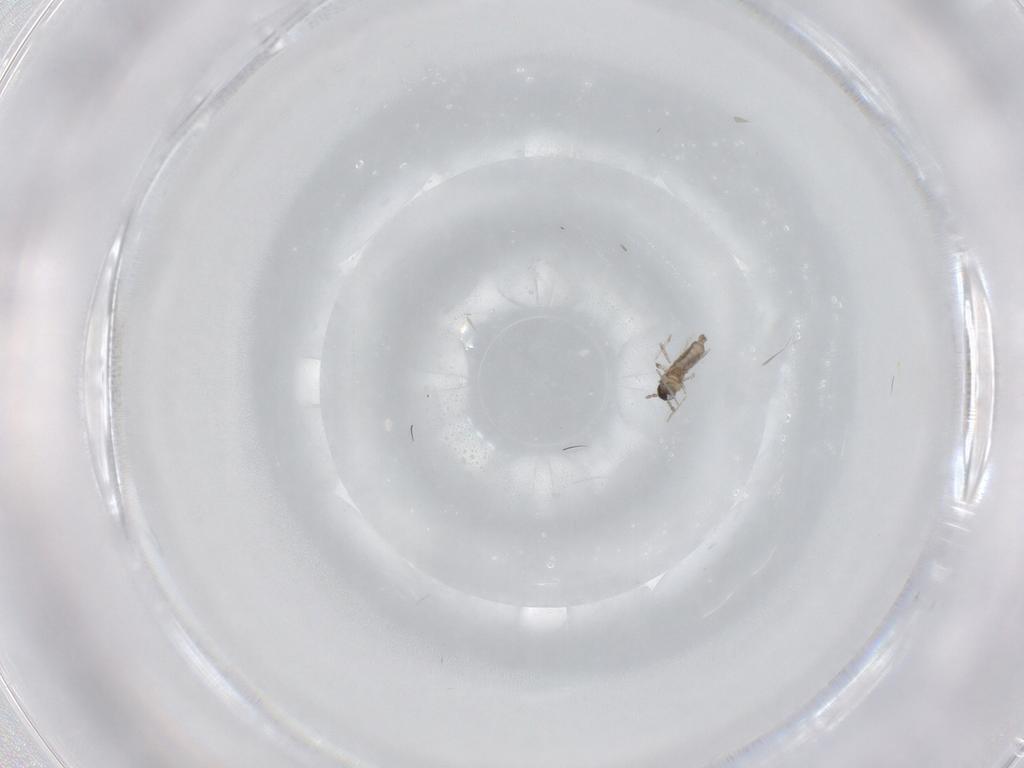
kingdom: Animalia
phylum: Arthropoda
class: Insecta
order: Diptera
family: Cecidomyiidae
